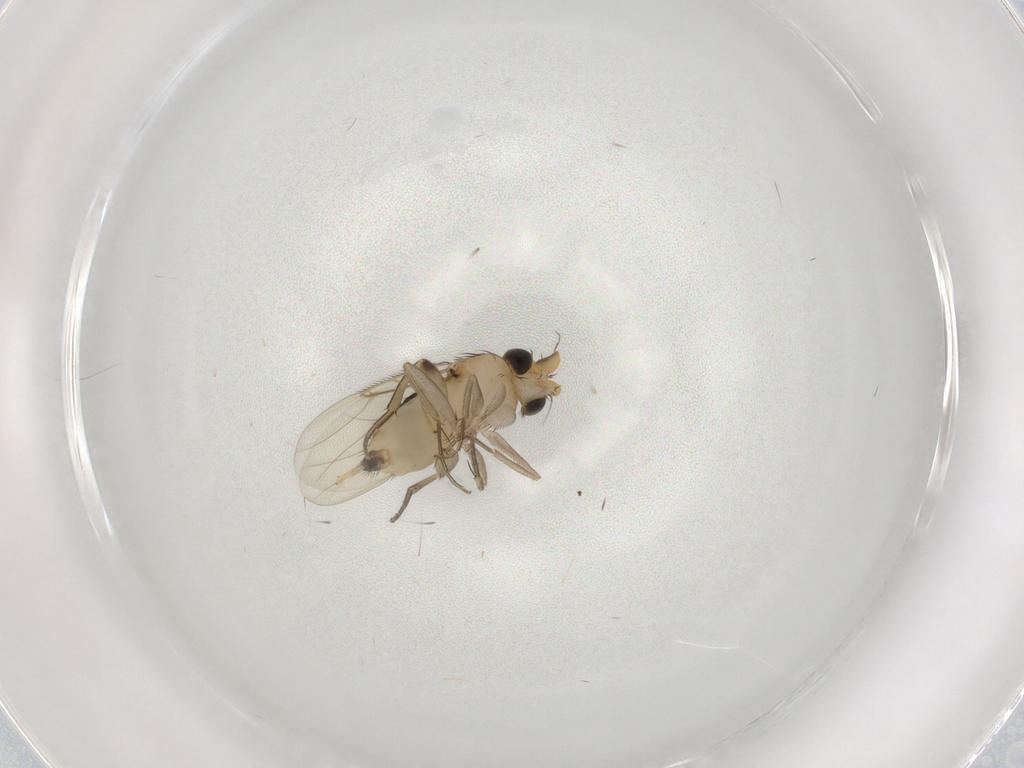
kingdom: Animalia
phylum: Arthropoda
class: Insecta
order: Diptera
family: Phoridae
